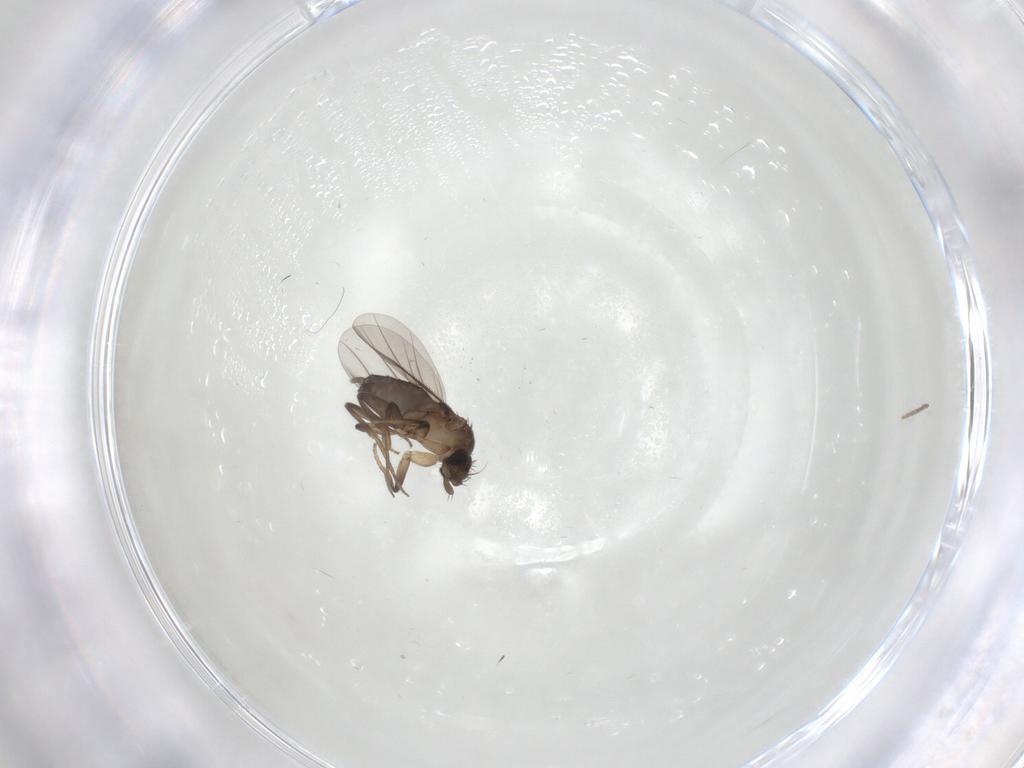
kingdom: Animalia
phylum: Arthropoda
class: Insecta
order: Diptera
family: Phoridae
